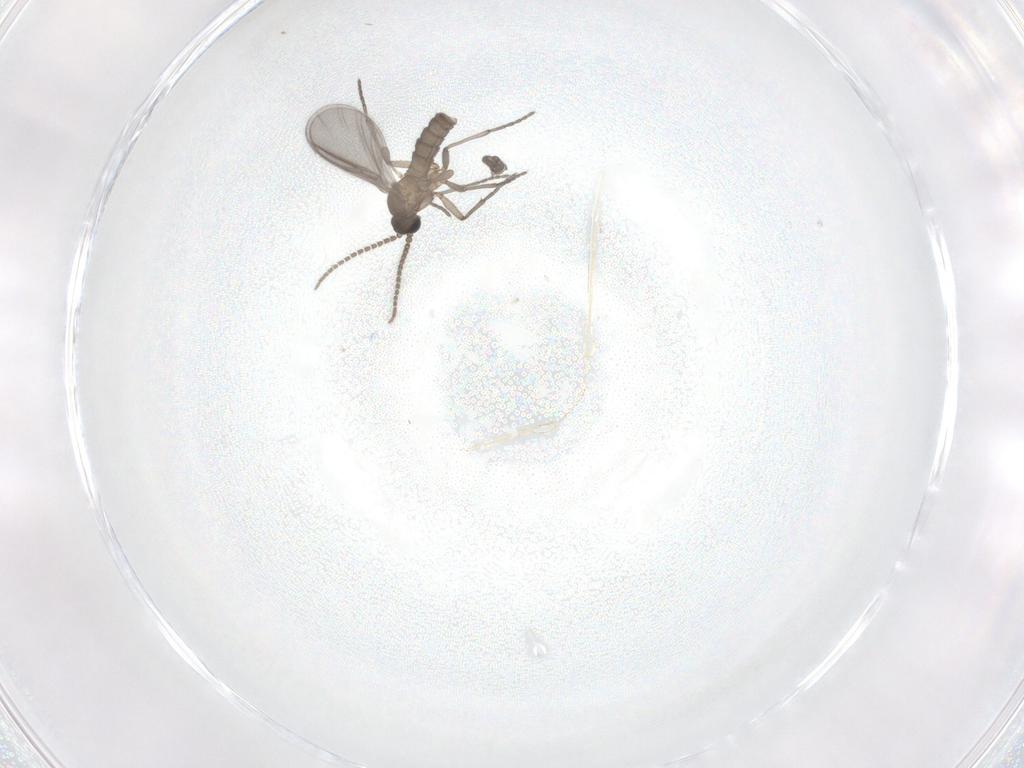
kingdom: Animalia
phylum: Arthropoda
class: Insecta
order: Diptera
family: Sciaridae
